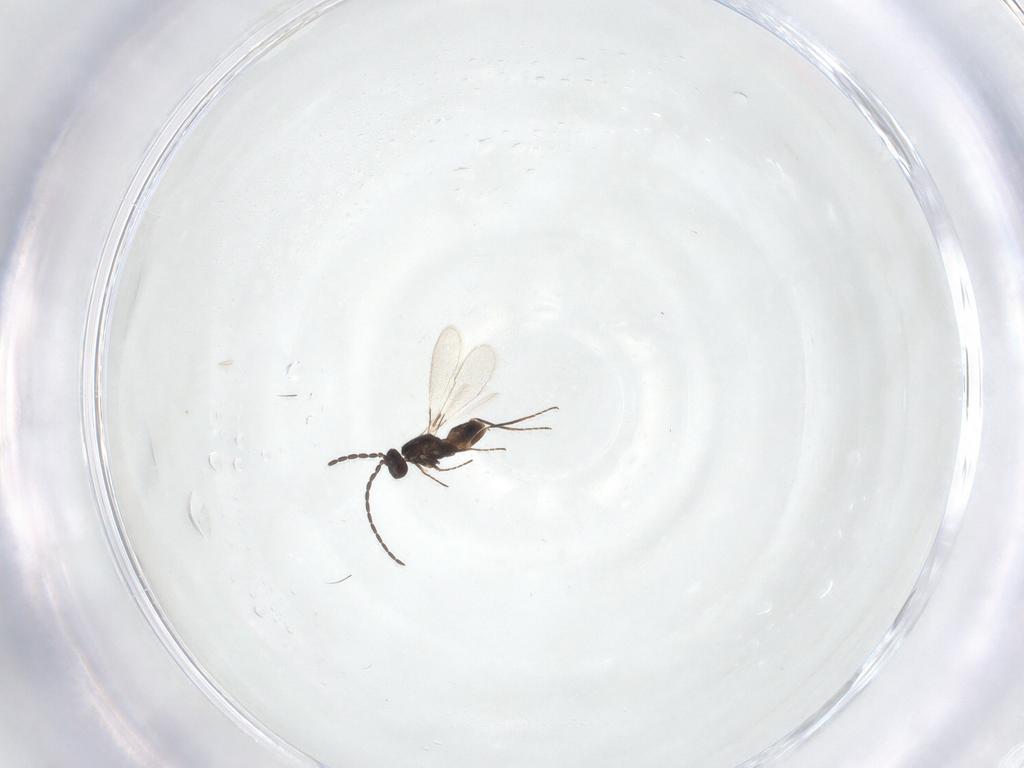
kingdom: Animalia
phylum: Arthropoda
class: Insecta
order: Hymenoptera
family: Mymaridae
